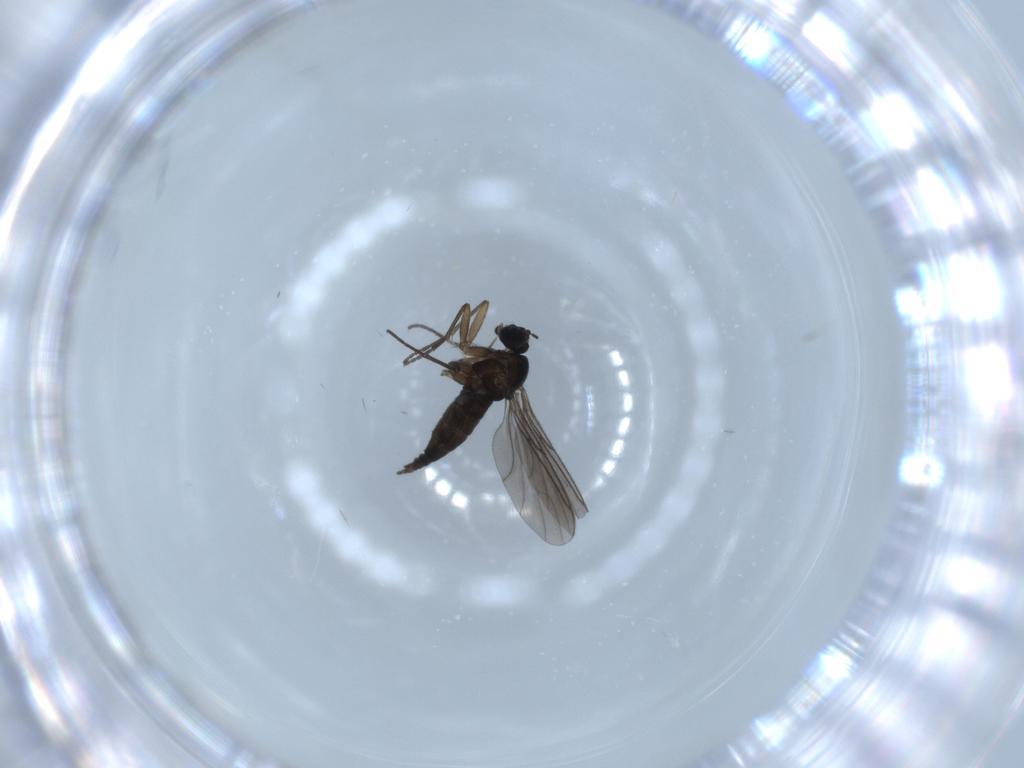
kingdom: Animalia
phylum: Arthropoda
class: Insecta
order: Diptera
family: Sciaridae
